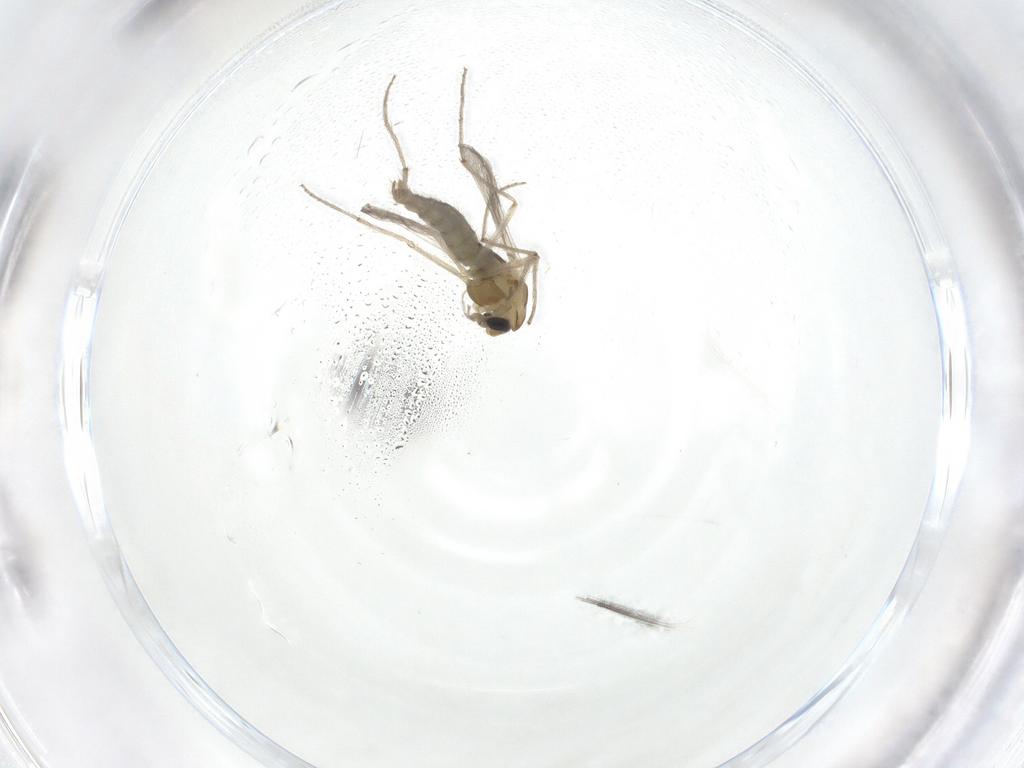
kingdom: Animalia
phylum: Arthropoda
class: Insecta
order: Diptera
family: Chironomidae
